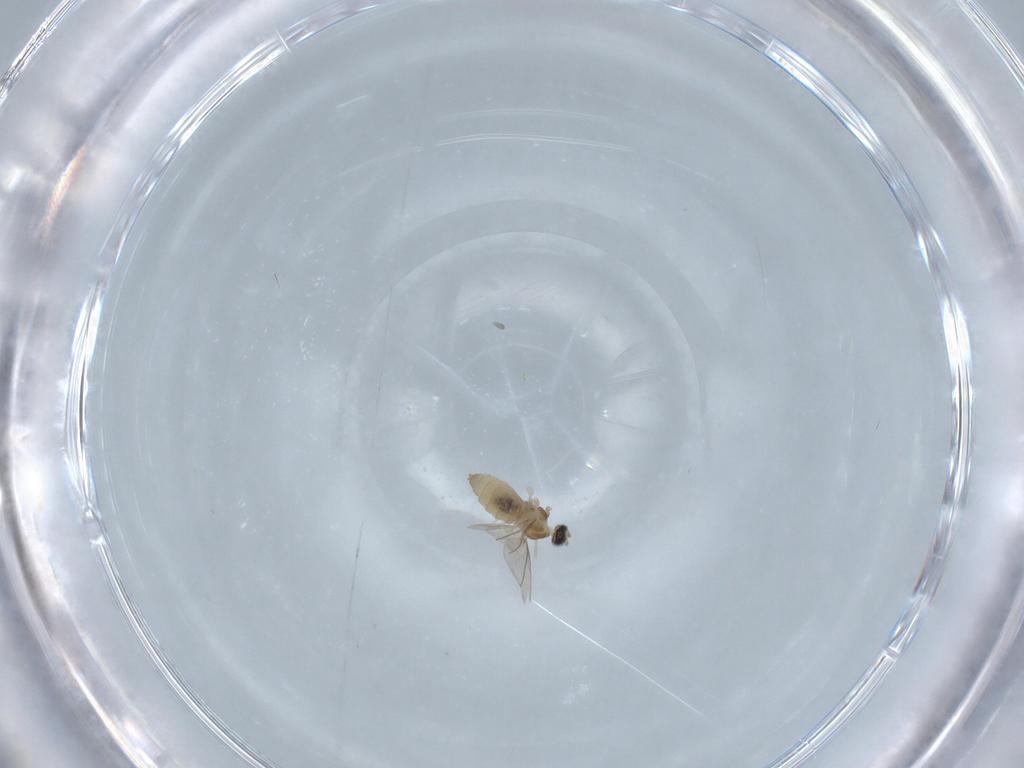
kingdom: Animalia
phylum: Arthropoda
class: Insecta
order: Diptera
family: Cecidomyiidae
